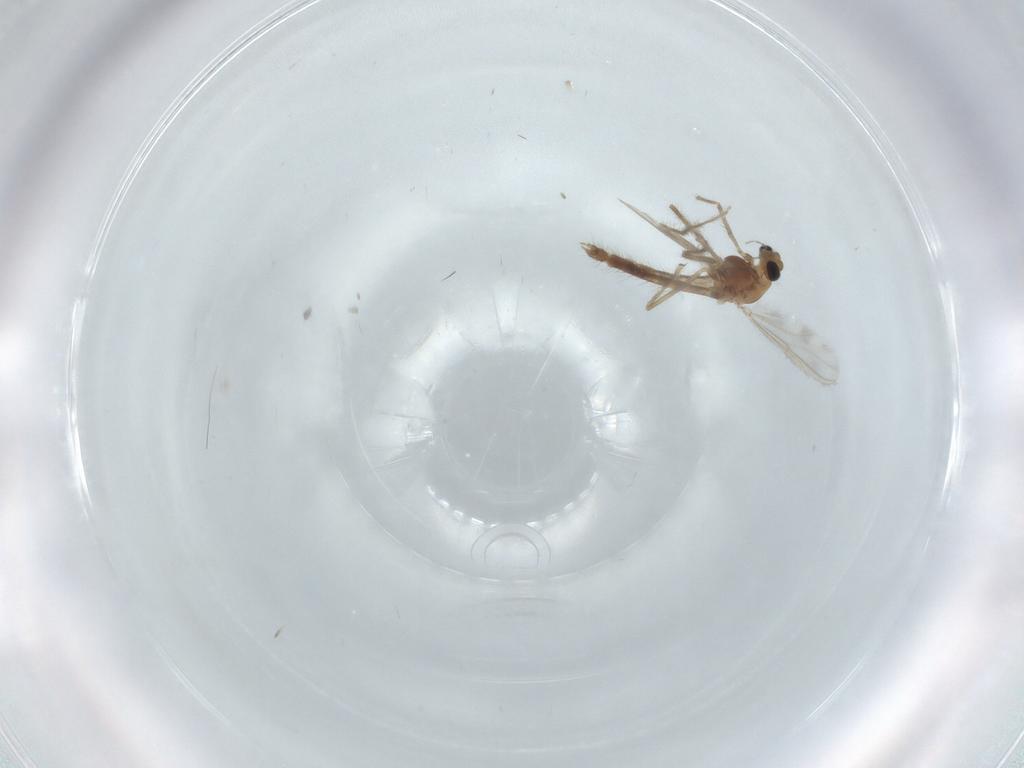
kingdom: Animalia
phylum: Arthropoda
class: Insecta
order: Diptera
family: Chironomidae
